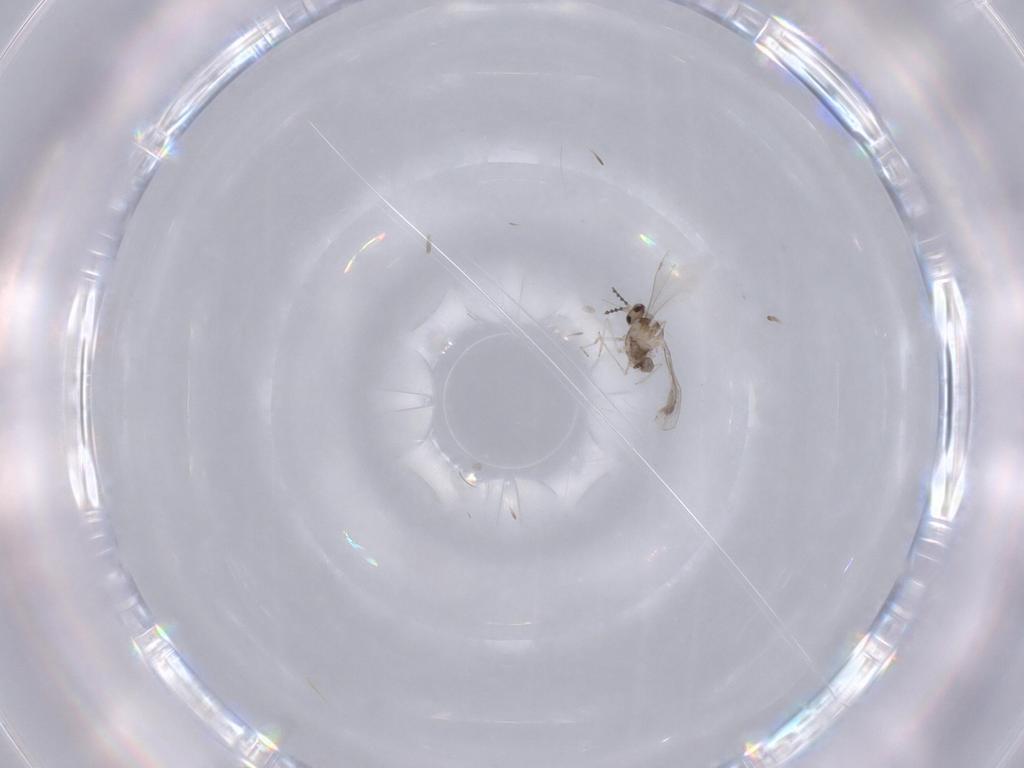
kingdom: Animalia
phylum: Arthropoda
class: Insecta
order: Diptera
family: Cecidomyiidae
